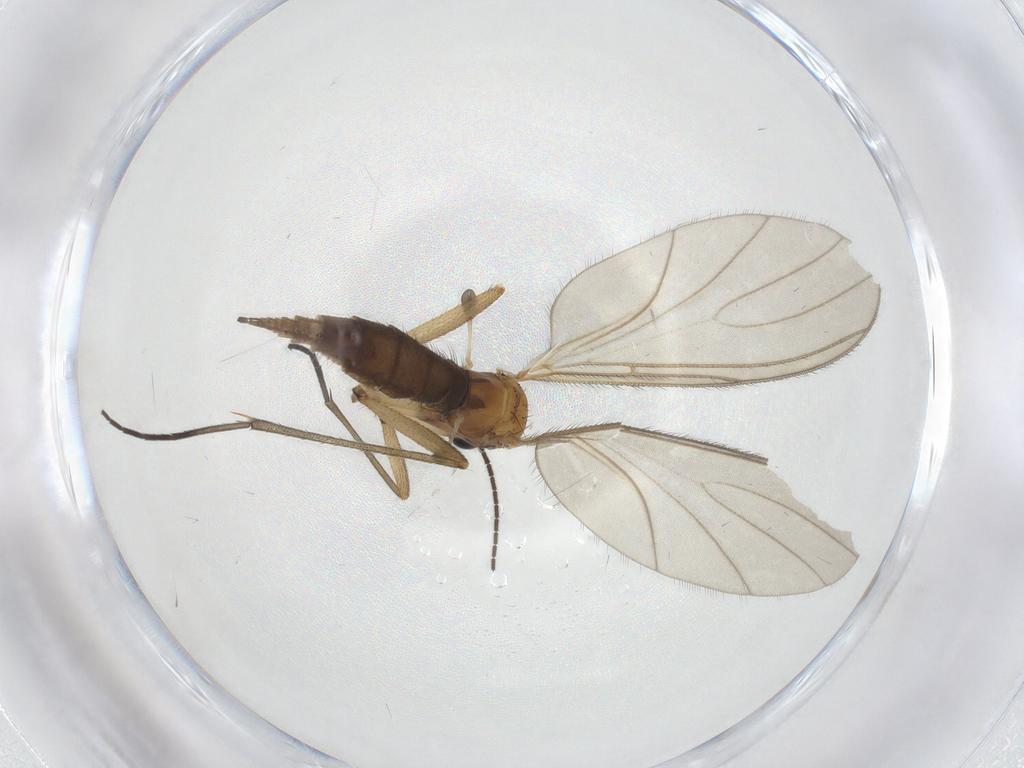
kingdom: Animalia
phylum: Arthropoda
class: Insecta
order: Diptera
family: Sciaridae
